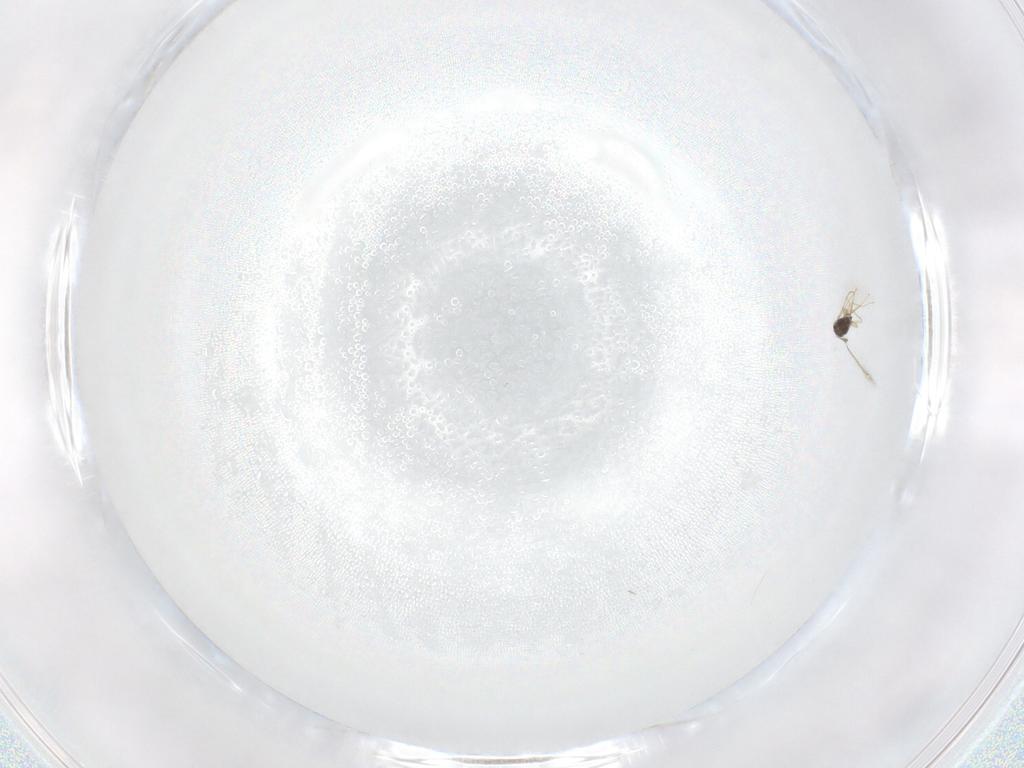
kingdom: Animalia
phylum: Arthropoda
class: Insecta
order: Hymenoptera
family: Mymaridae
